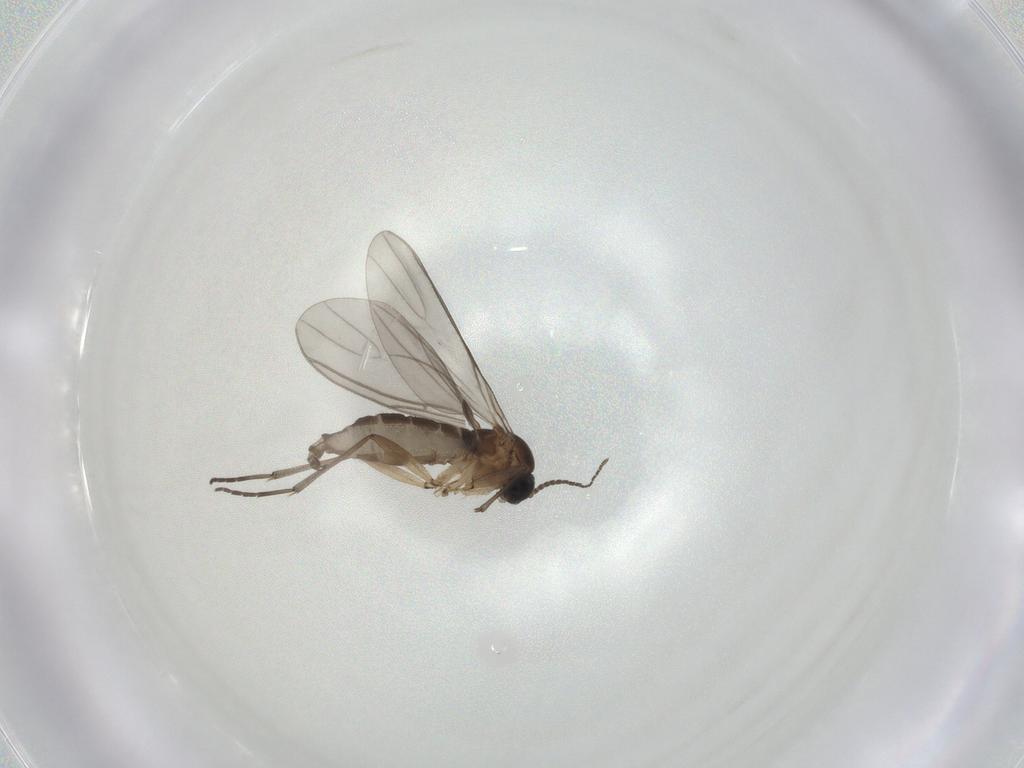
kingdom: Animalia
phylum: Arthropoda
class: Insecta
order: Diptera
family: Sciaridae
